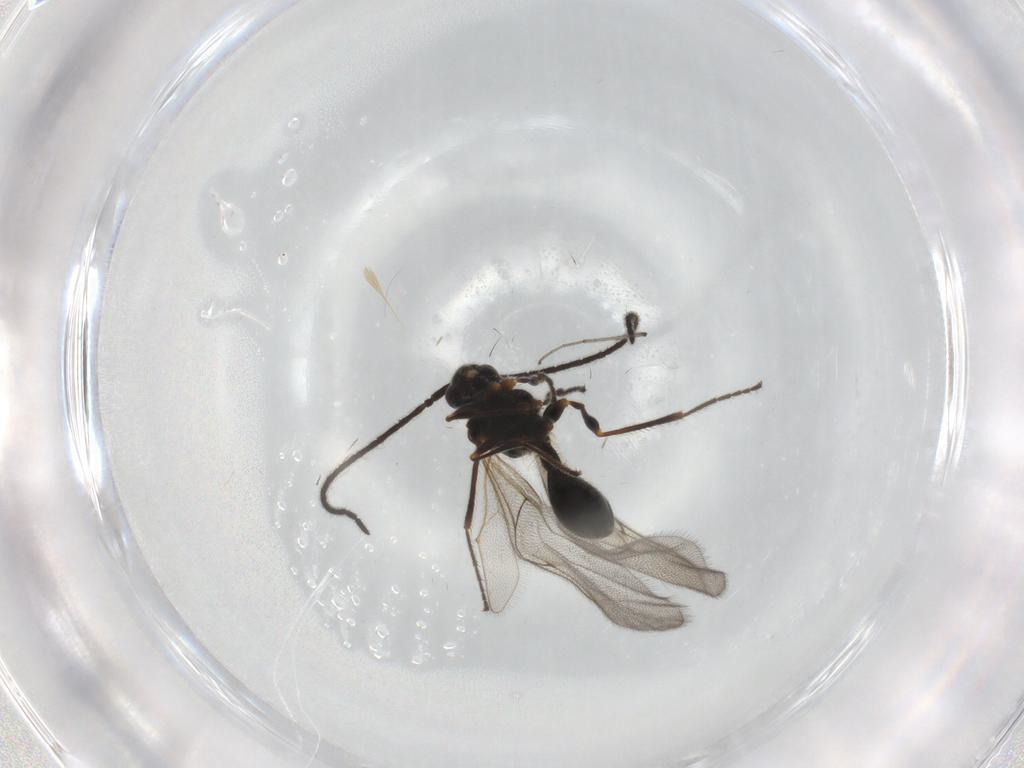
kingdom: Animalia
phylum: Arthropoda
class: Insecta
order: Hymenoptera
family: Diapriidae
